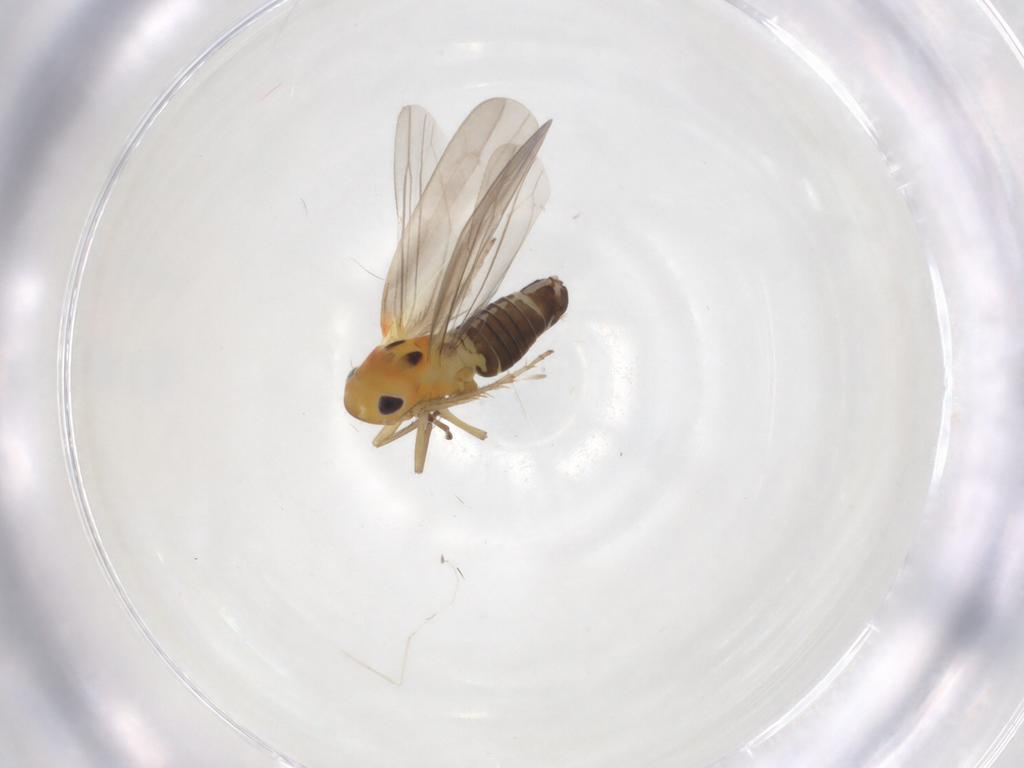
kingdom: Animalia
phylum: Arthropoda
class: Insecta
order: Hemiptera
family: Cicadellidae
